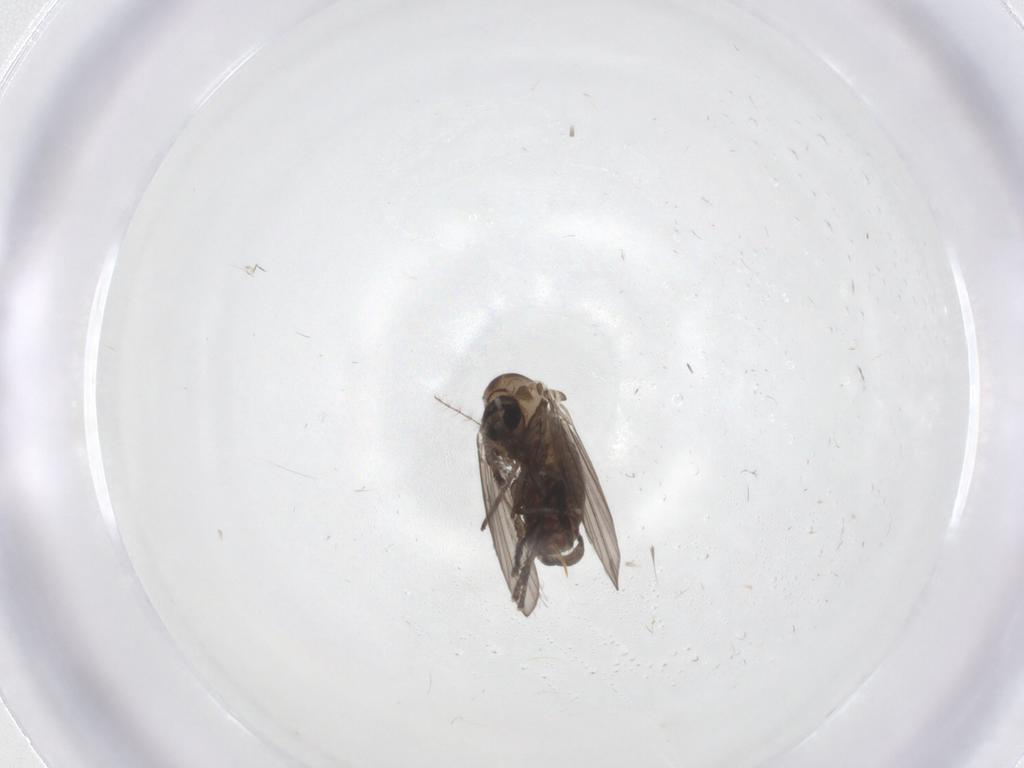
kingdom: Animalia
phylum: Arthropoda
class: Insecta
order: Diptera
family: Psychodidae
